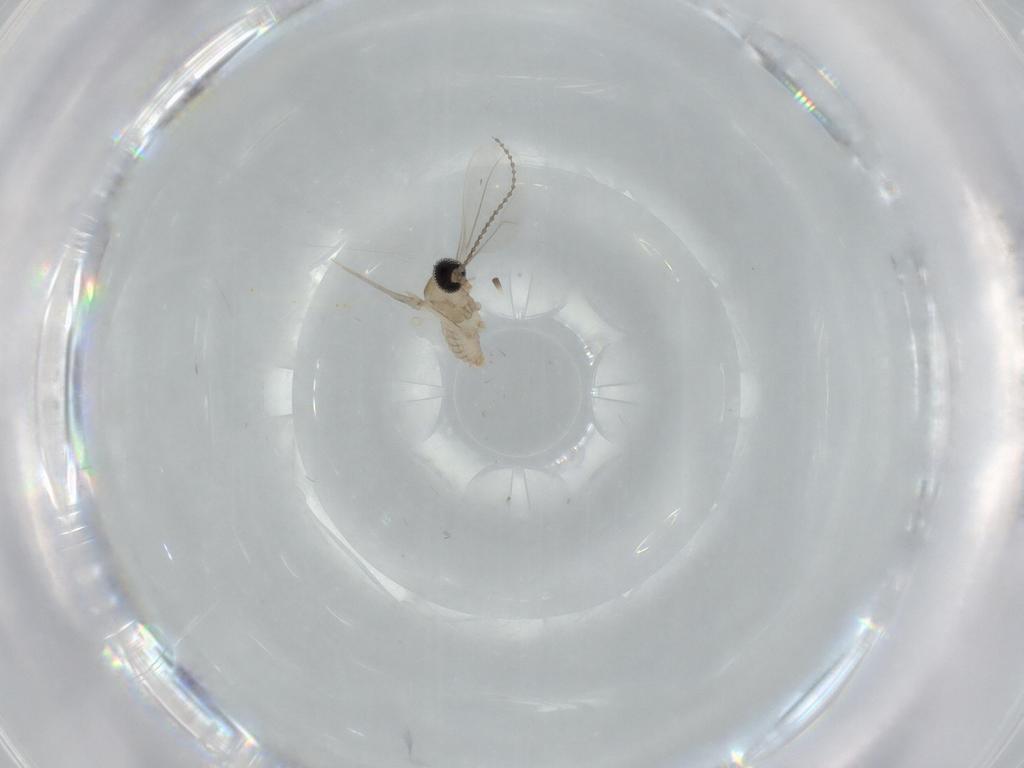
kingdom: Animalia
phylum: Arthropoda
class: Insecta
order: Diptera
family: Cecidomyiidae
